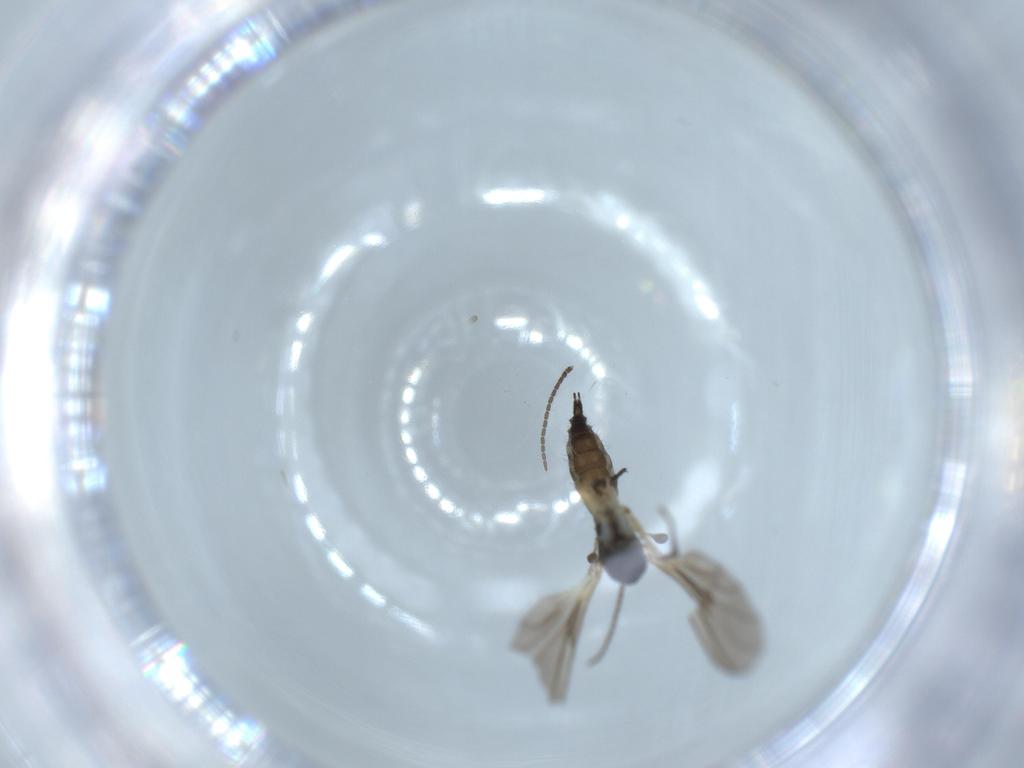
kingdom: Animalia
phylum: Arthropoda
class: Insecta
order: Diptera
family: Sciaridae
